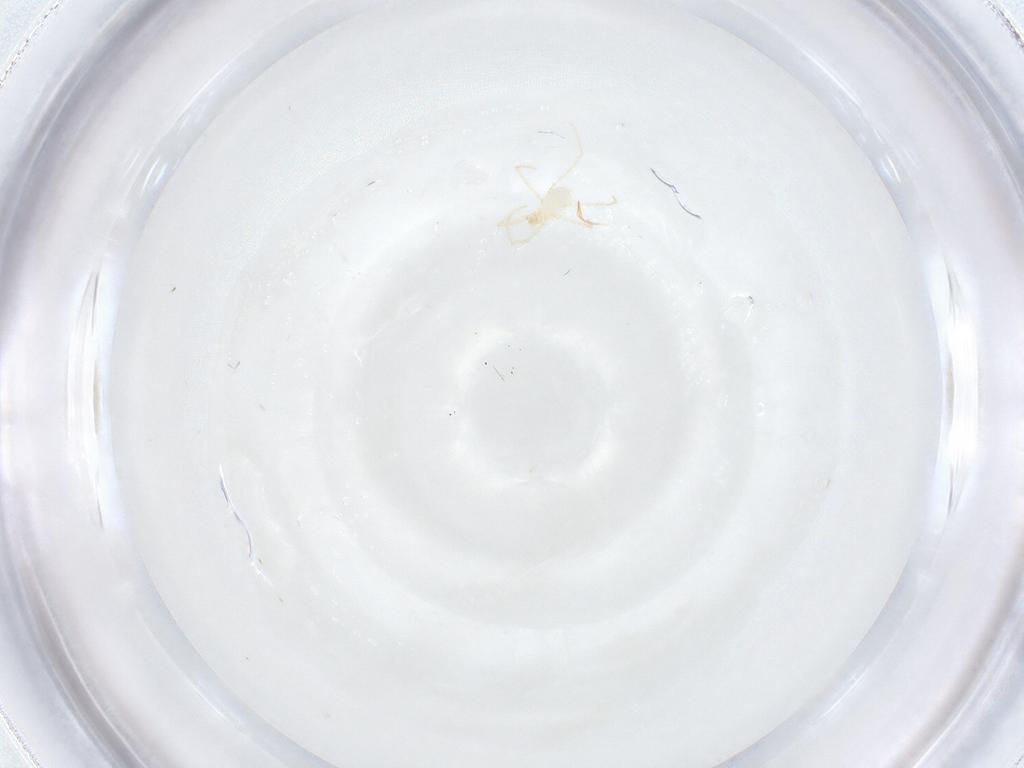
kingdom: Animalia
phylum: Arthropoda
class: Arachnida
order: Trombidiformes
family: Erythraeidae
